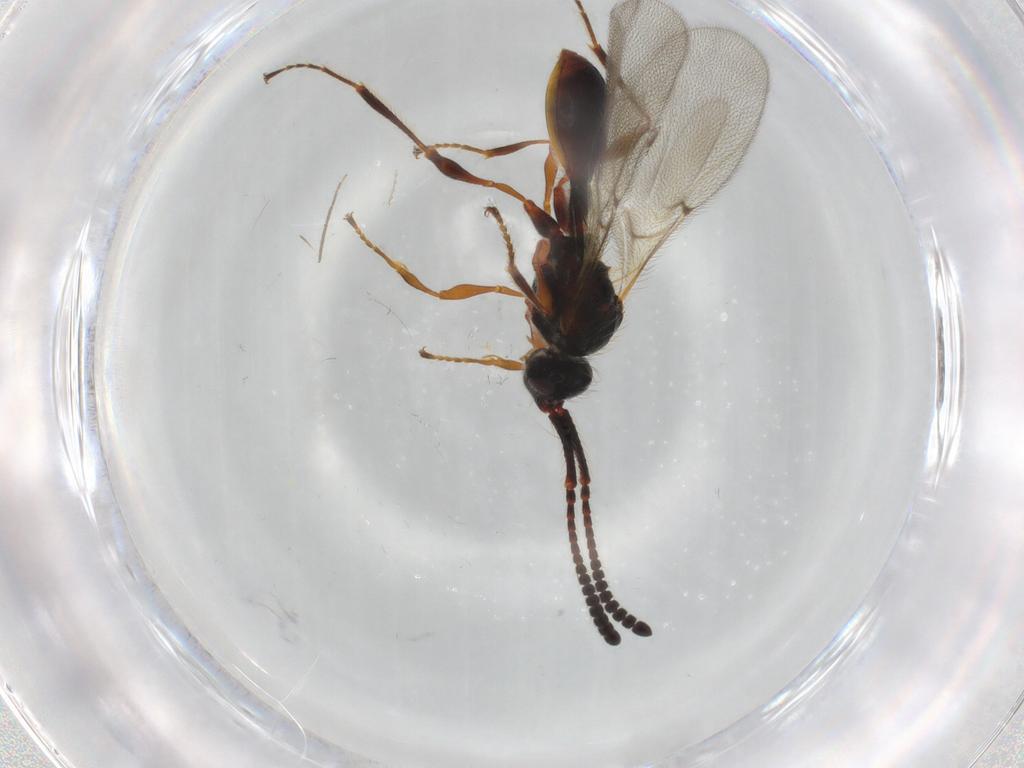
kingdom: Animalia
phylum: Arthropoda
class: Insecta
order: Hymenoptera
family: Diapriidae
